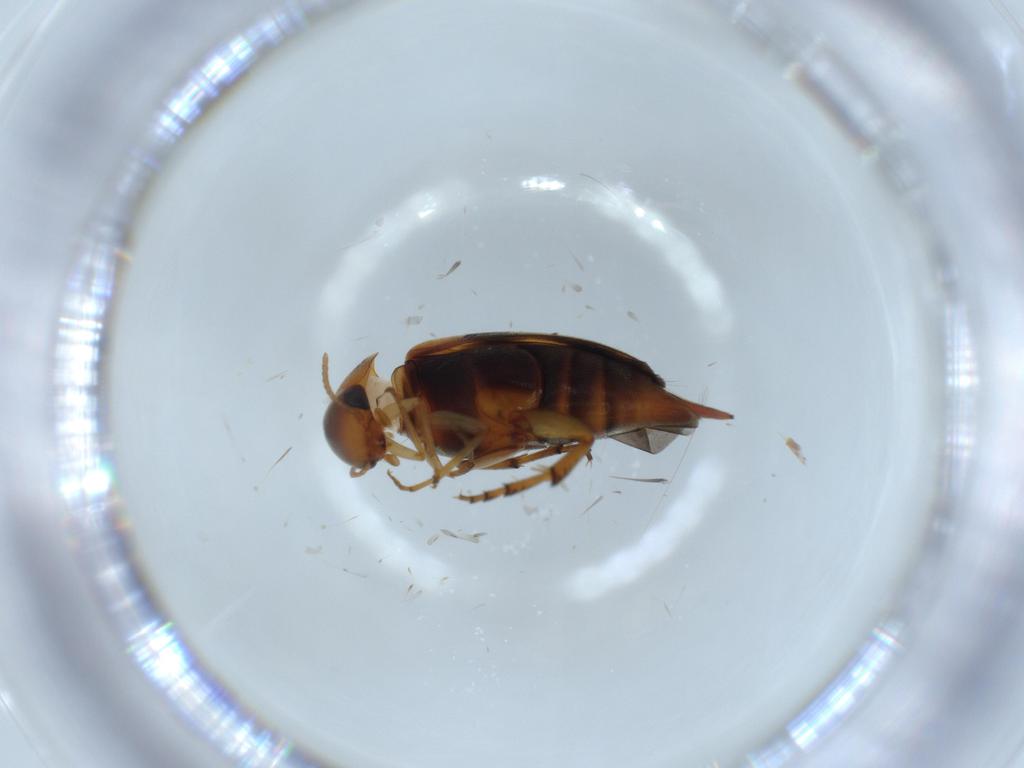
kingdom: Animalia
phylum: Arthropoda
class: Insecta
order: Coleoptera
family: Mordellidae
